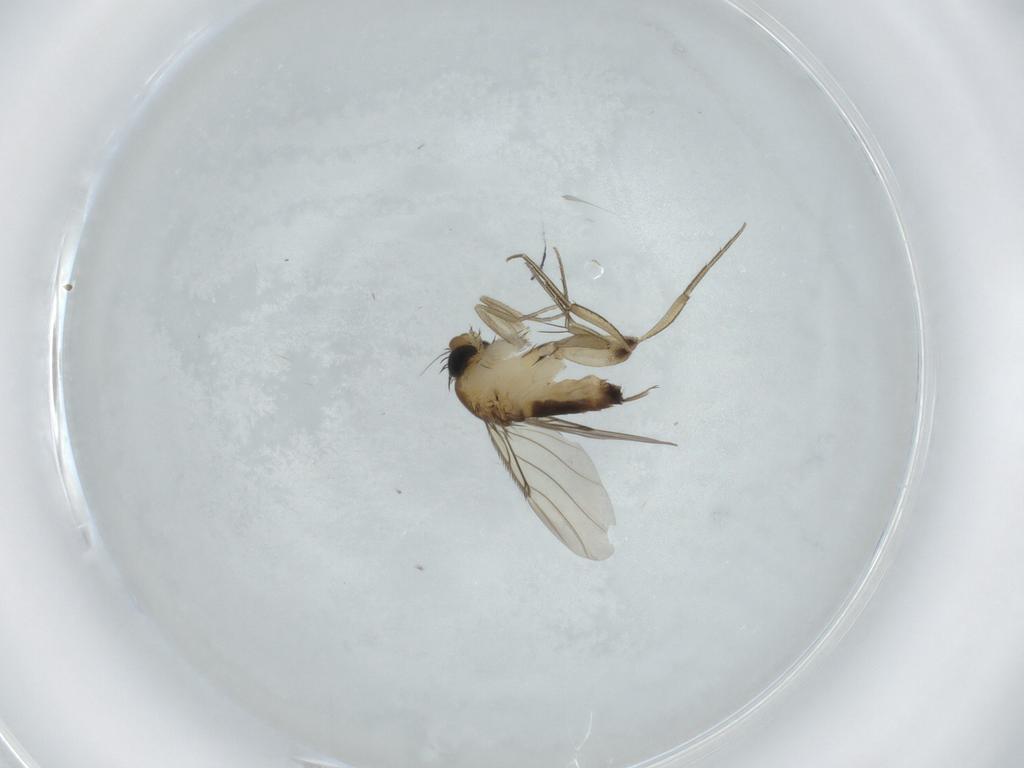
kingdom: Animalia
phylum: Arthropoda
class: Insecta
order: Diptera
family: Phoridae
